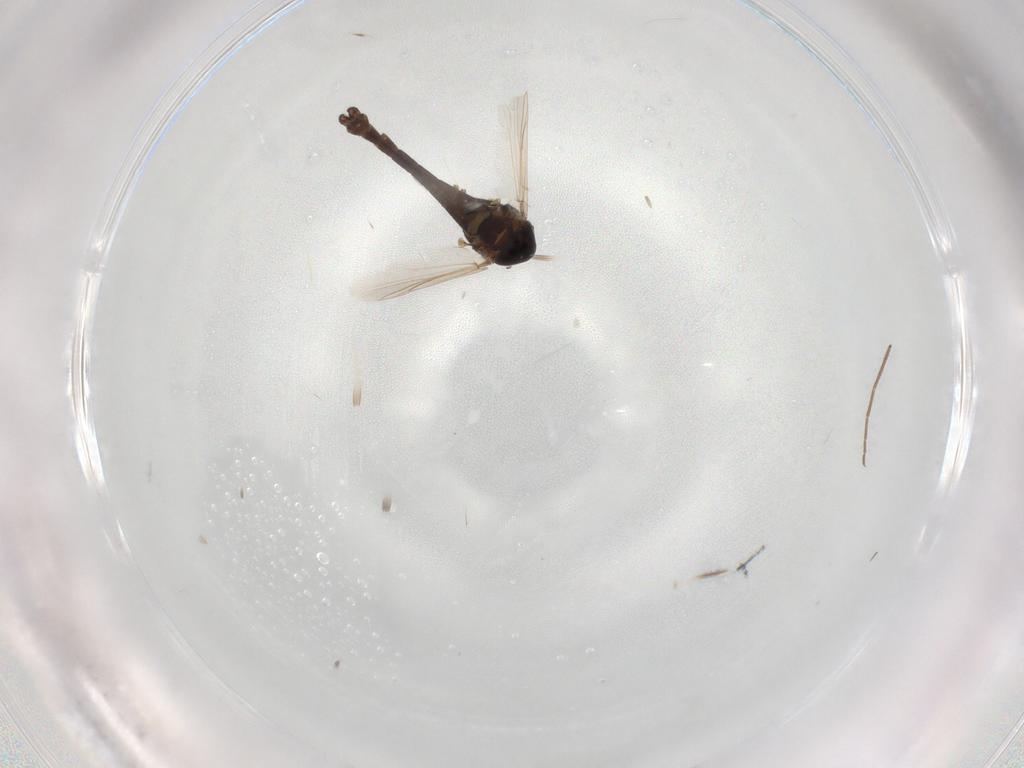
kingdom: Animalia
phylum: Arthropoda
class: Insecta
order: Diptera
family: Chironomidae
